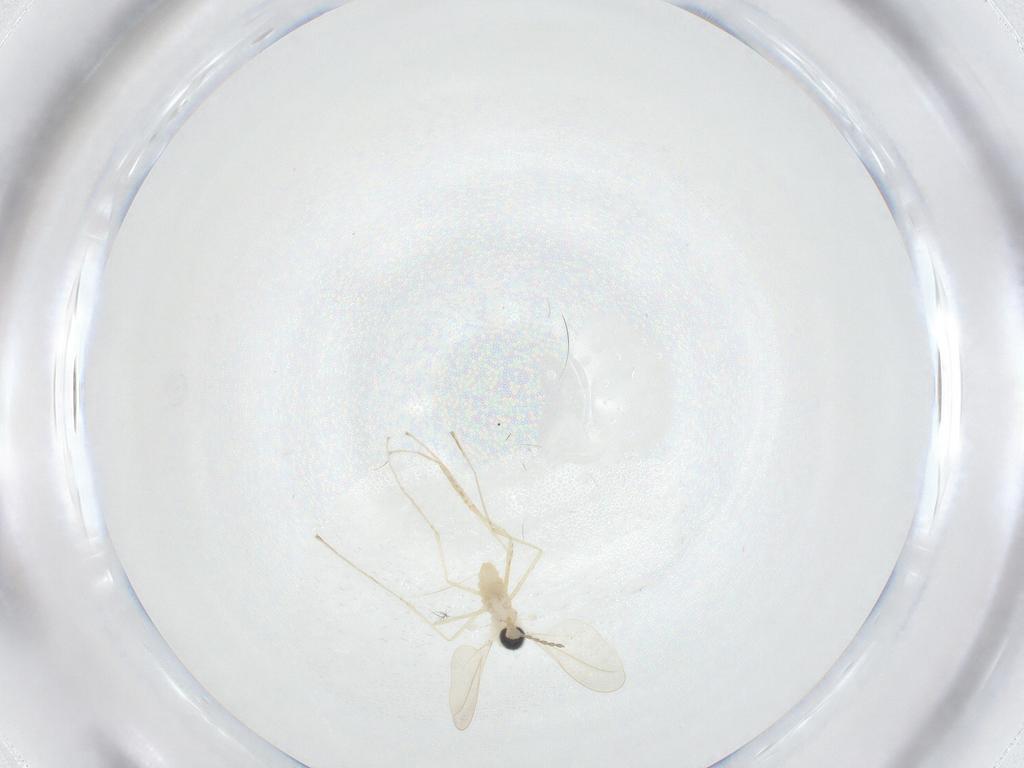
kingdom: Animalia
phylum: Arthropoda
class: Insecta
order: Diptera
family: Cecidomyiidae
